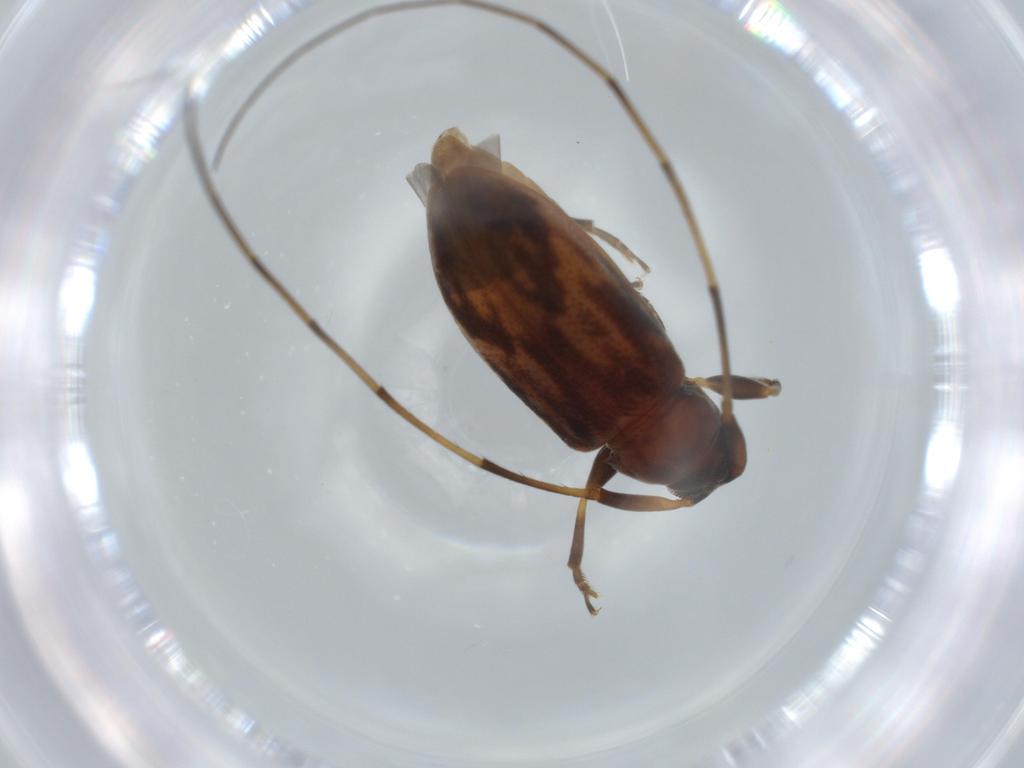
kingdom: Animalia
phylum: Arthropoda
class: Insecta
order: Coleoptera
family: Cerambycidae
